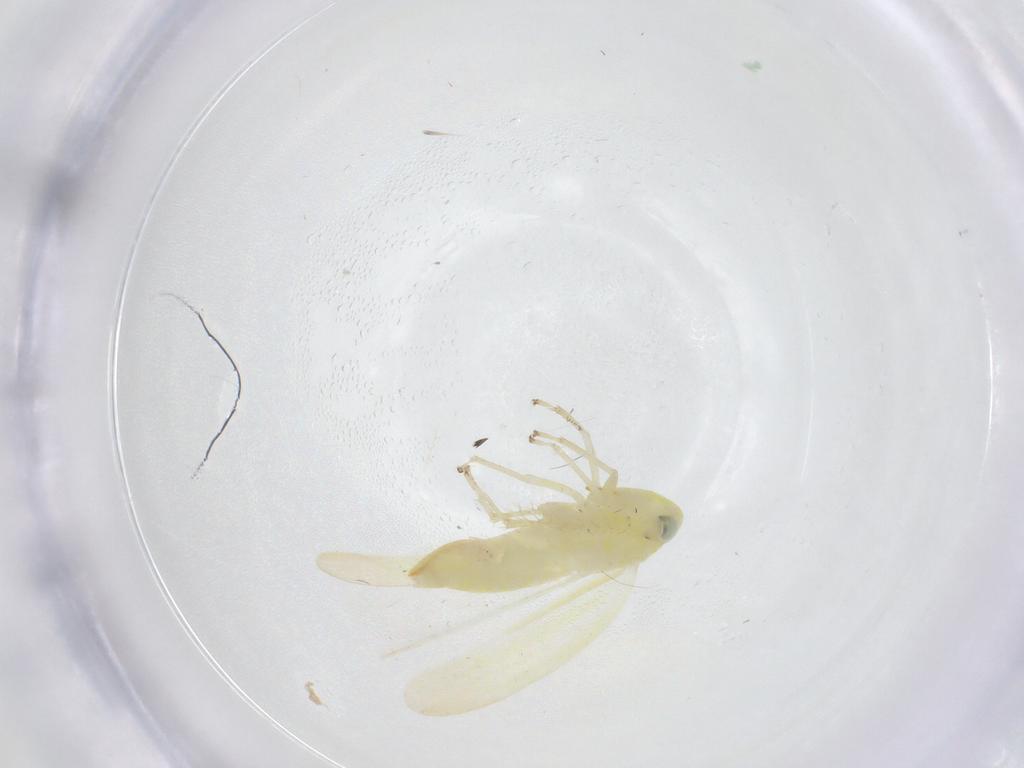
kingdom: Animalia
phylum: Arthropoda
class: Insecta
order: Hemiptera
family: Cicadellidae
